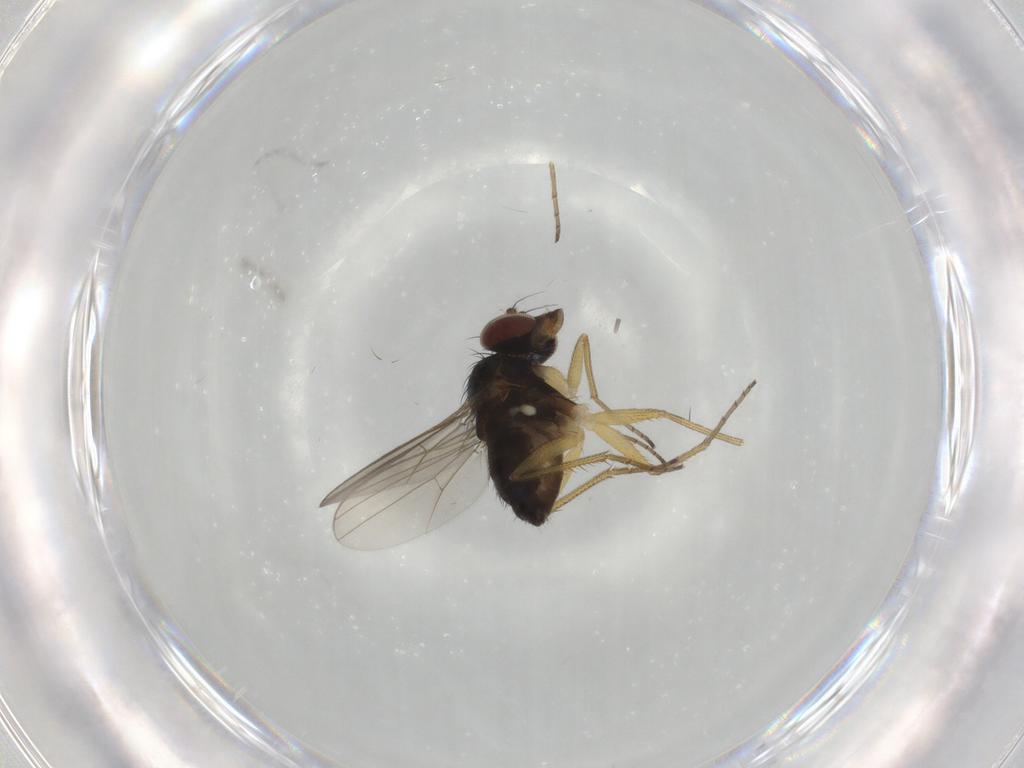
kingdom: Animalia
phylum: Arthropoda
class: Insecta
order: Diptera
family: Dolichopodidae
